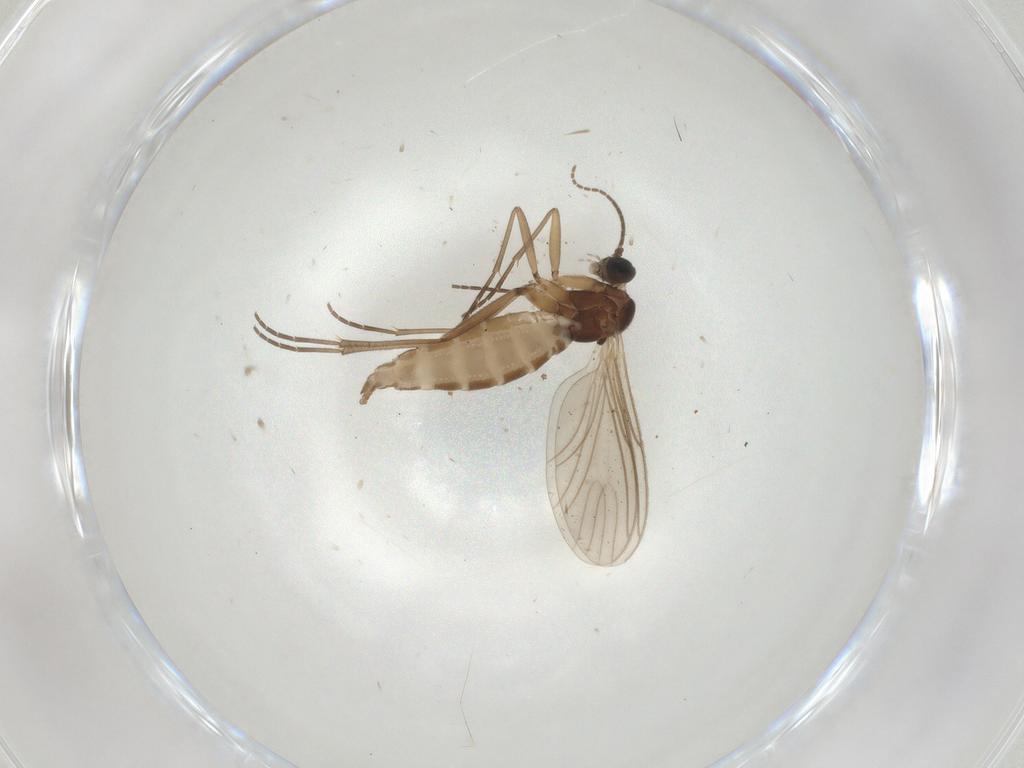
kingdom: Animalia
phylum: Arthropoda
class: Insecta
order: Diptera
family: Sciaridae
